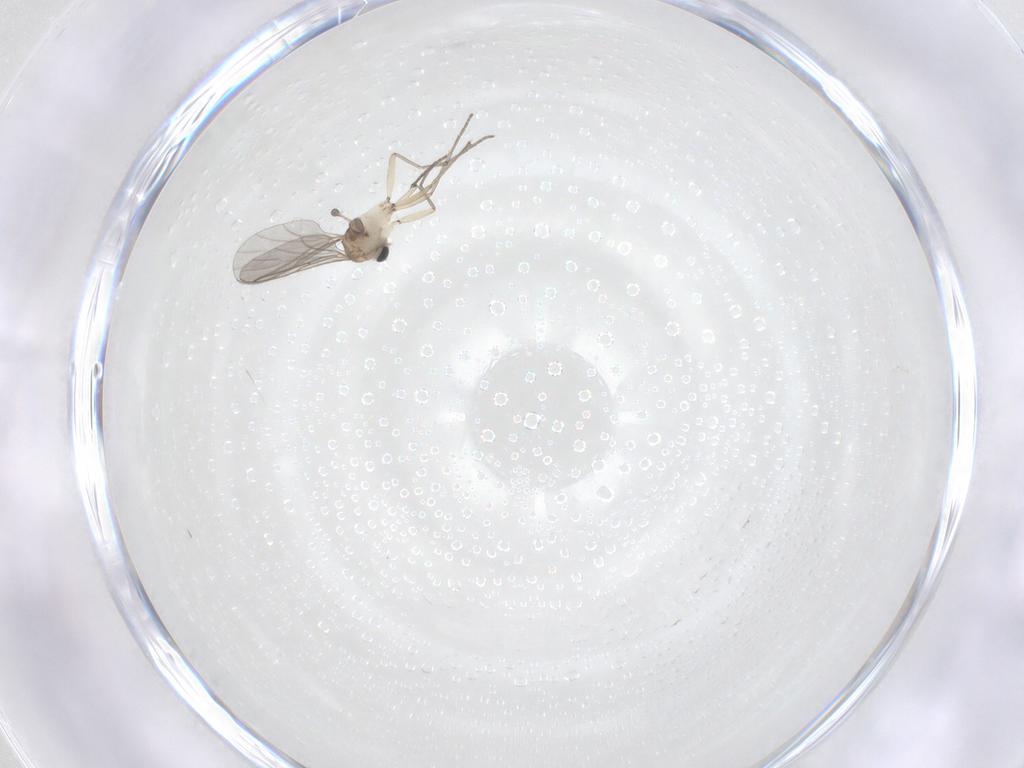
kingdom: Animalia
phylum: Arthropoda
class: Insecta
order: Diptera
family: Sciaridae
